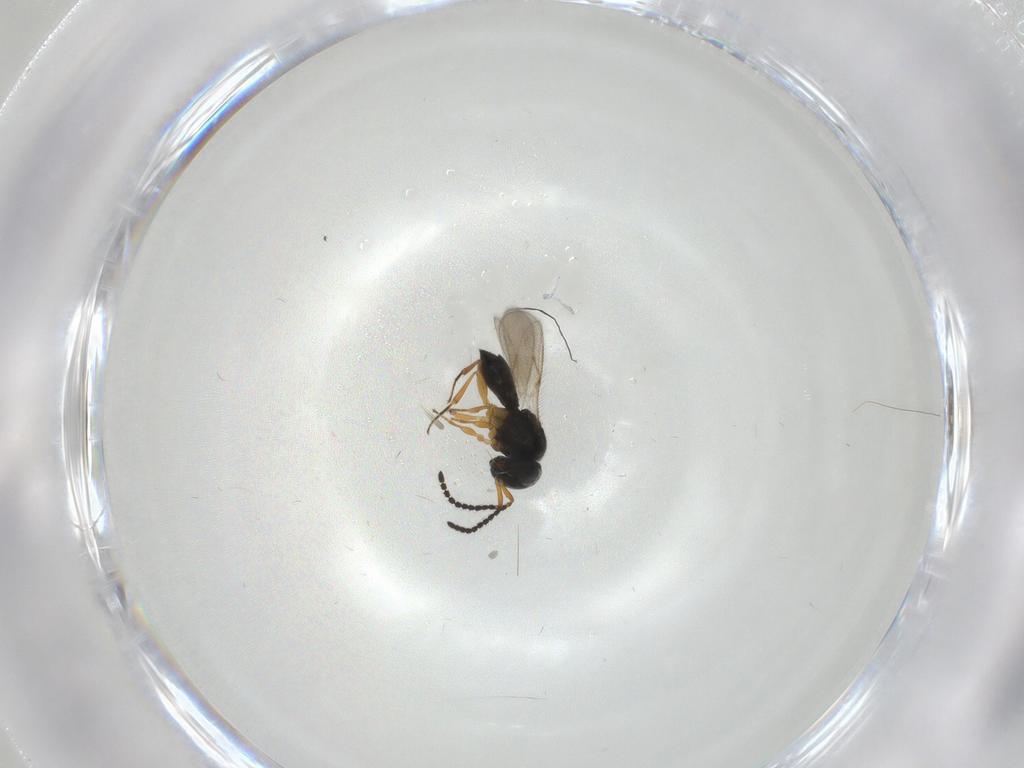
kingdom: Animalia
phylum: Arthropoda
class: Insecta
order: Hymenoptera
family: Scelionidae
